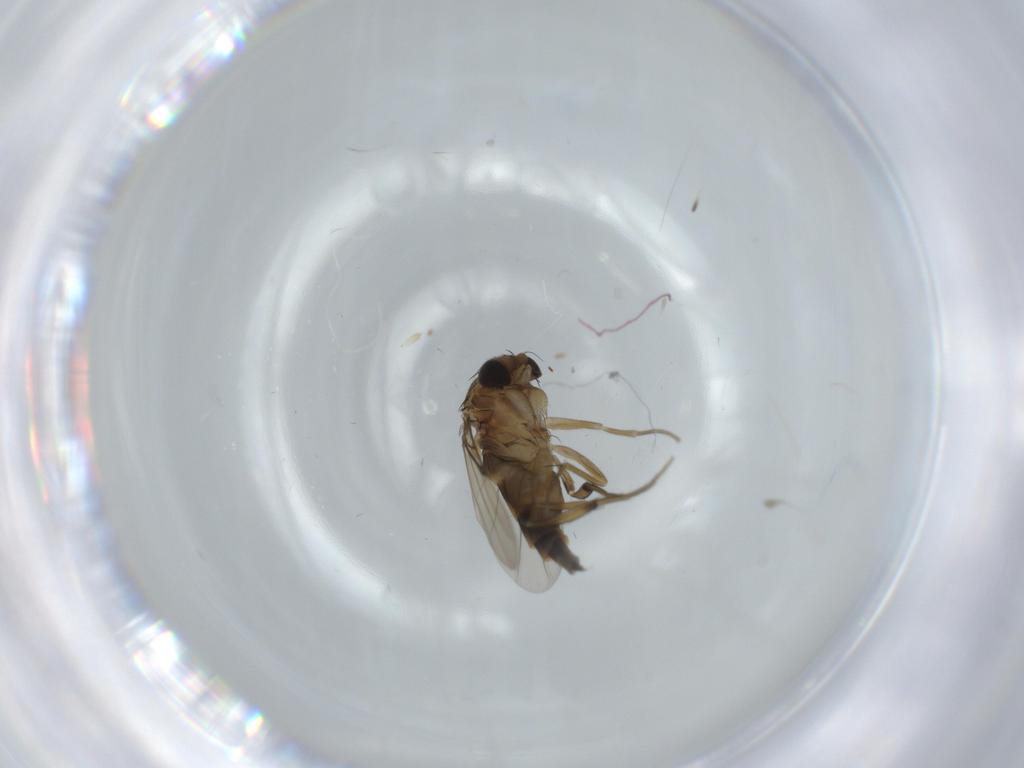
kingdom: Animalia
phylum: Arthropoda
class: Insecta
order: Diptera
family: Phoridae
